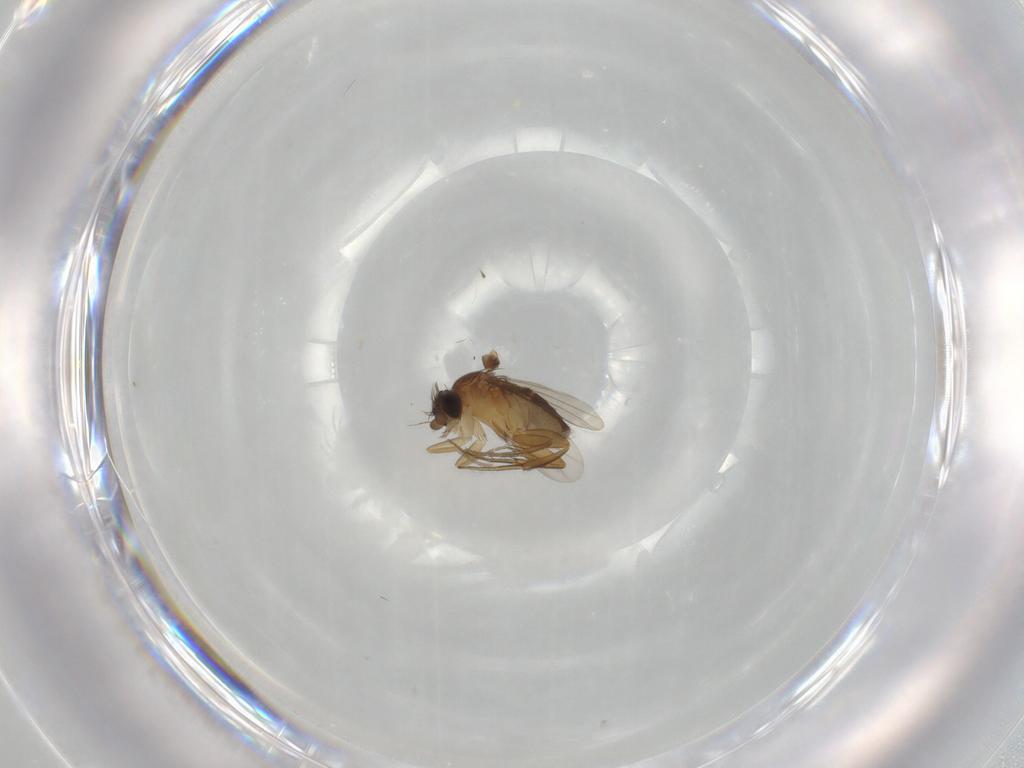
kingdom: Animalia
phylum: Arthropoda
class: Insecta
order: Diptera
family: Phoridae
